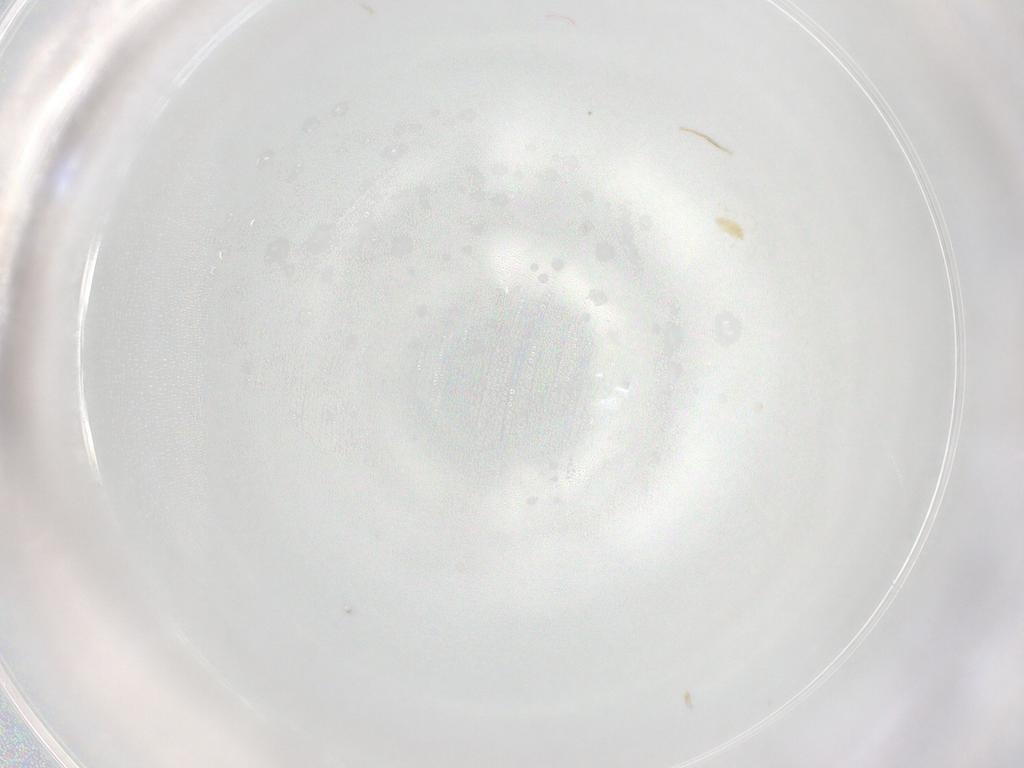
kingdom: Animalia
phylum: Arthropoda
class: Arachnida
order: Trombidiformes
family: Eupodidae
